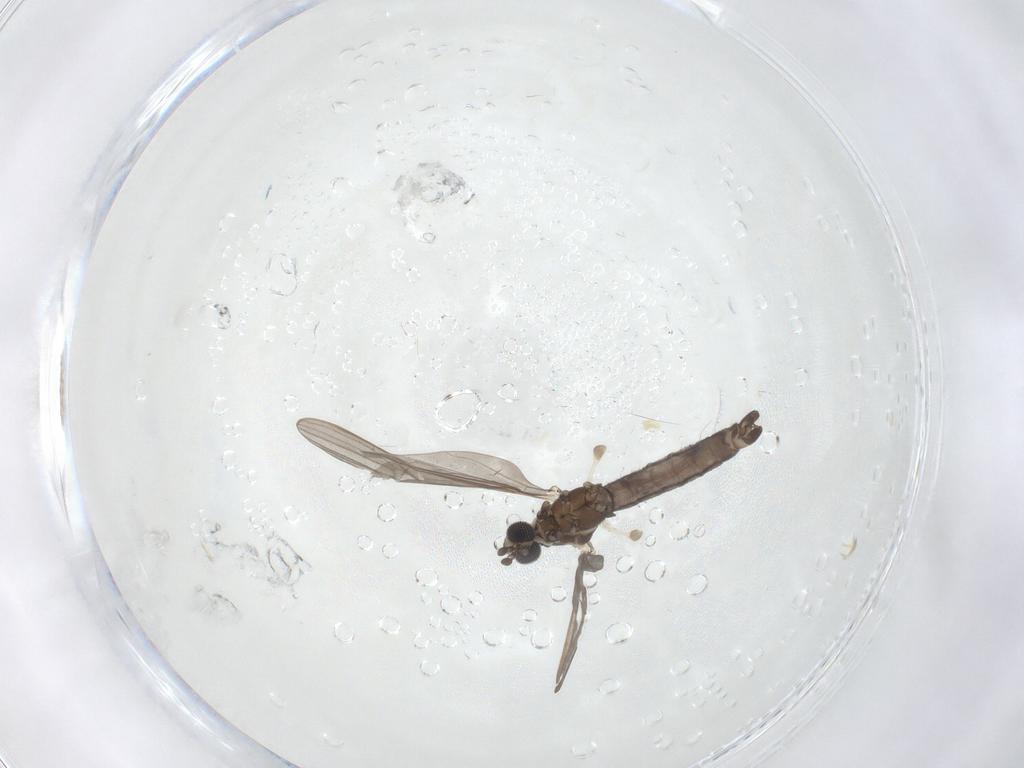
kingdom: Animalia
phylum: Arthropoda
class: Insecta
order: Diptera
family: Limoniidae
